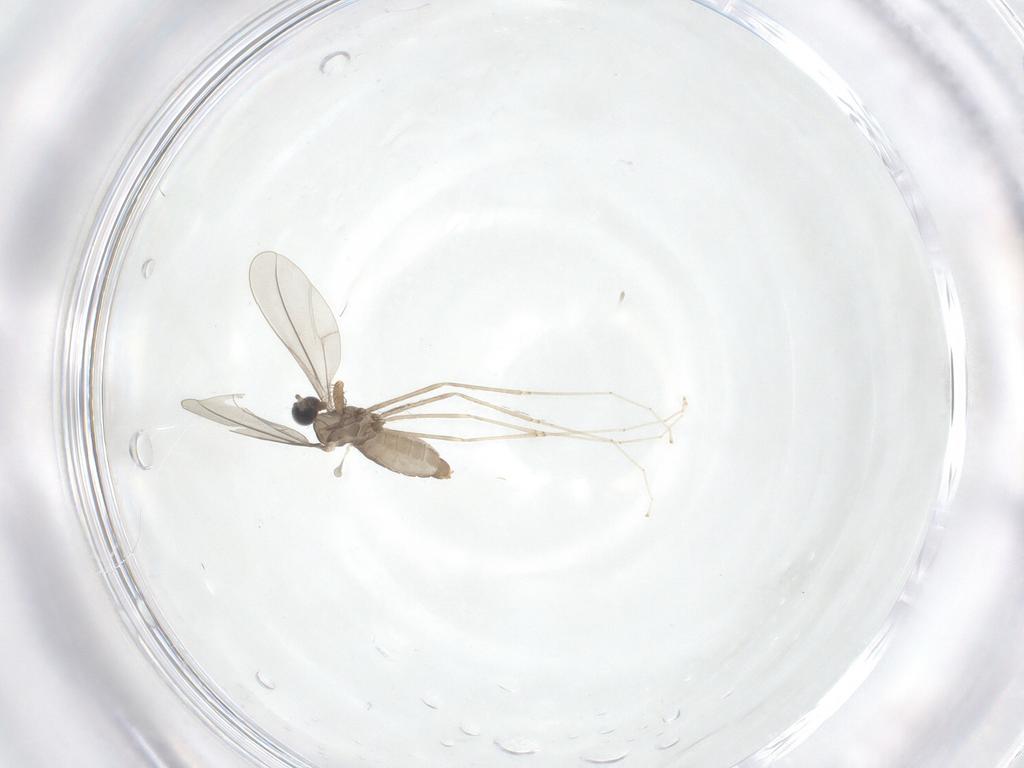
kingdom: Animalia
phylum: Arthropoda
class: Insecta
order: Diptera
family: Cecidomyiidae
